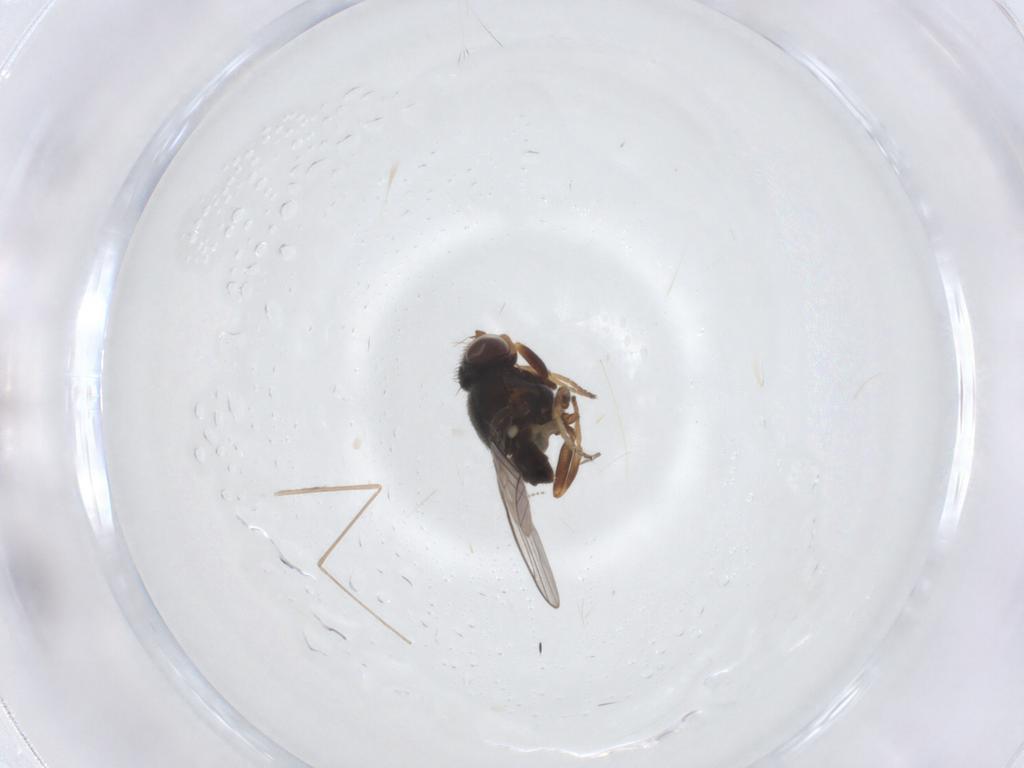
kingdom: Animalia
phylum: Arthropoda
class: Insecta
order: Diptera
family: Chloropidae
